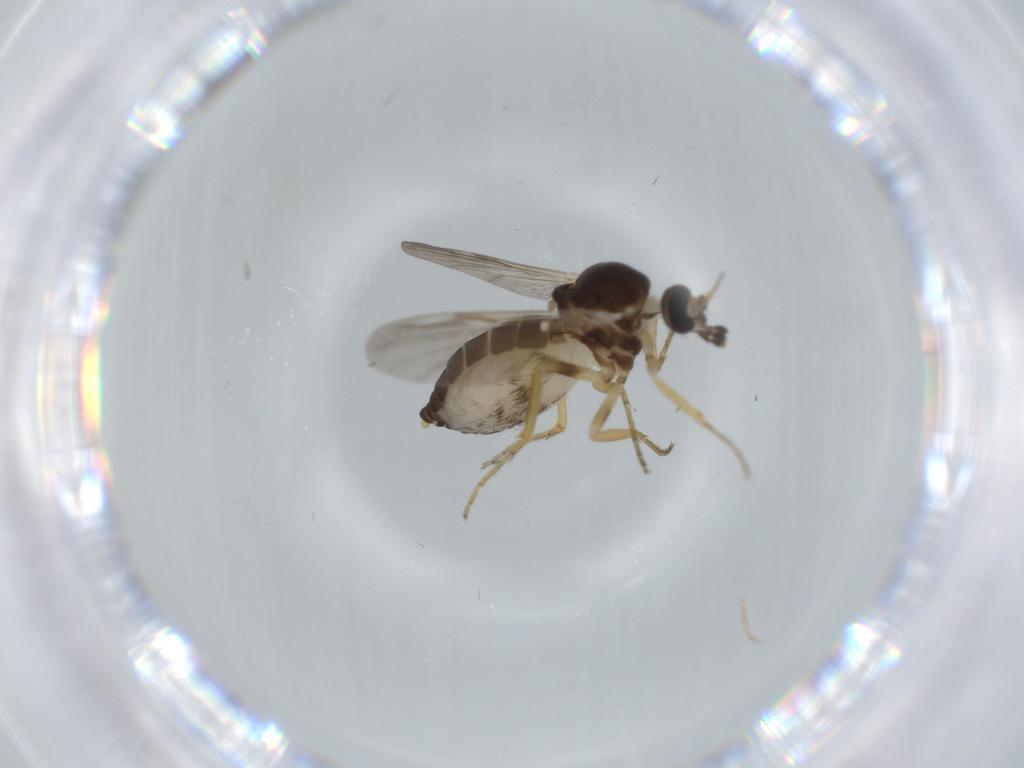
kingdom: Animalia
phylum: Arthropoda
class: Insecta
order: Diptera
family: Ceratopogonidae
